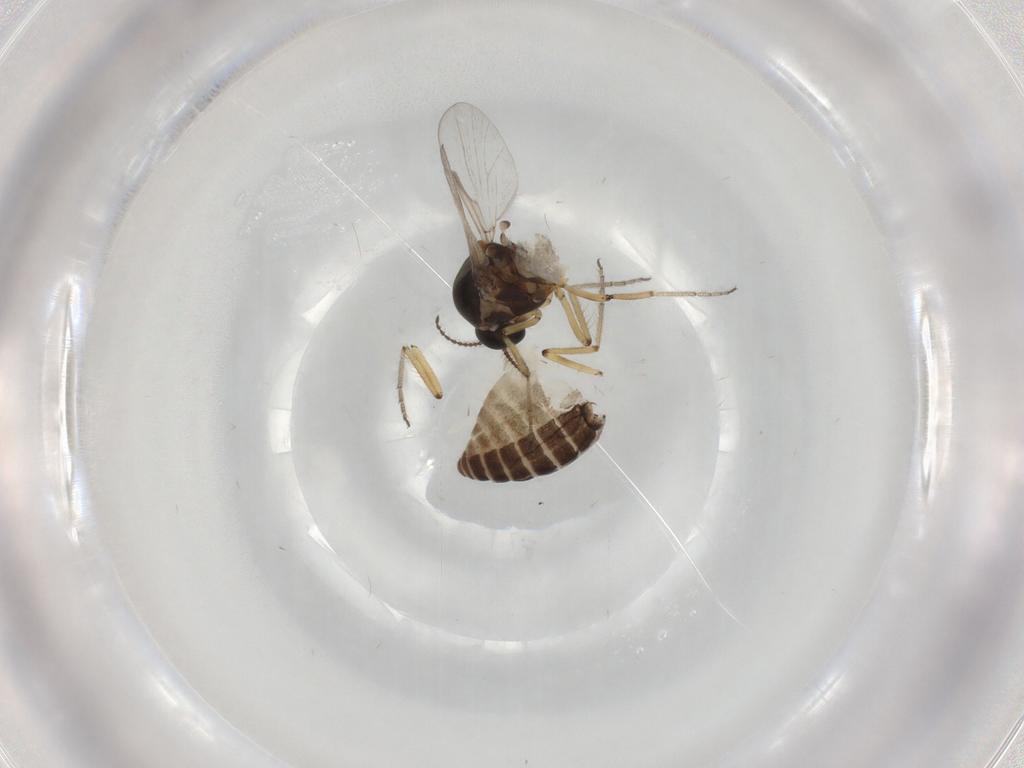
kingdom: Animalia
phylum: Arthropoda
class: Insecta
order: Diptera
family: Ceratopogonidae
